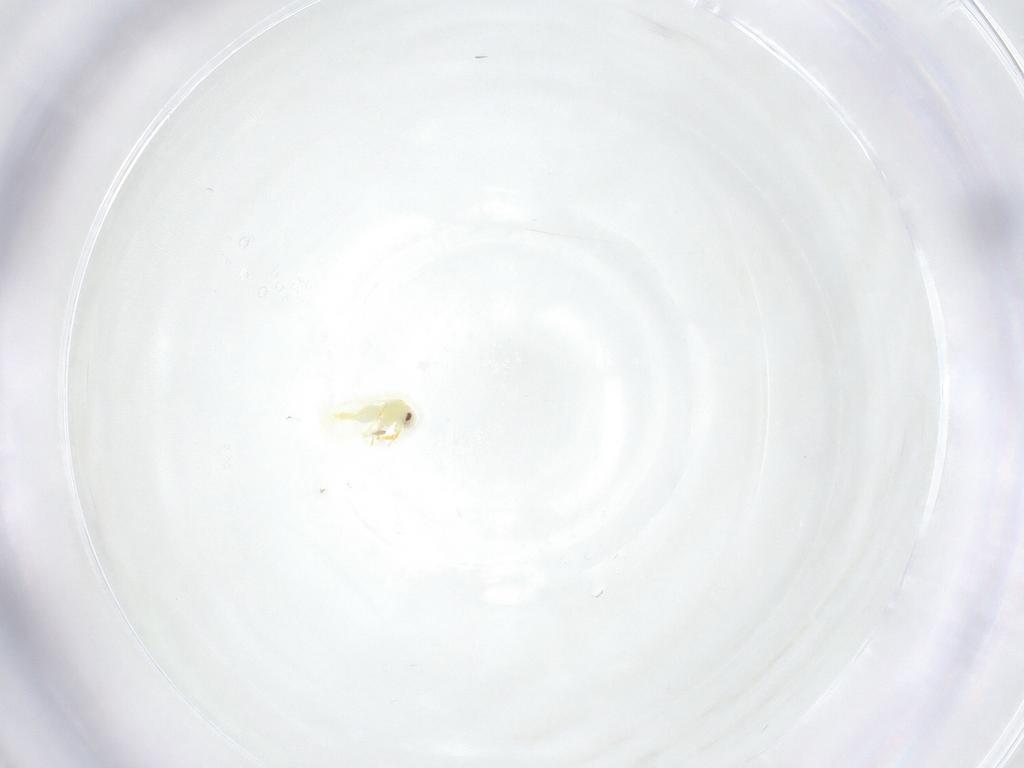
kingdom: Animalia
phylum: Arthropoda
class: Insecta
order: Hemiptera
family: Aleyrodidae
